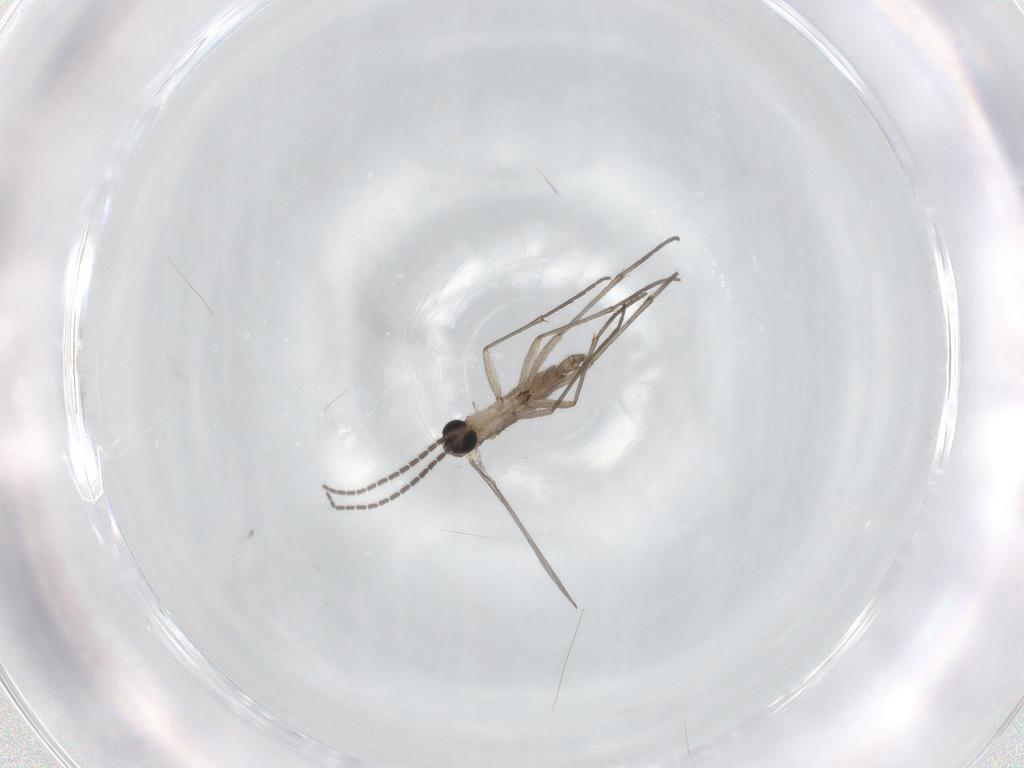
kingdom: Animalia
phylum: Arthropoda
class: Insecta
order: Diptera
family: Sciaridae
